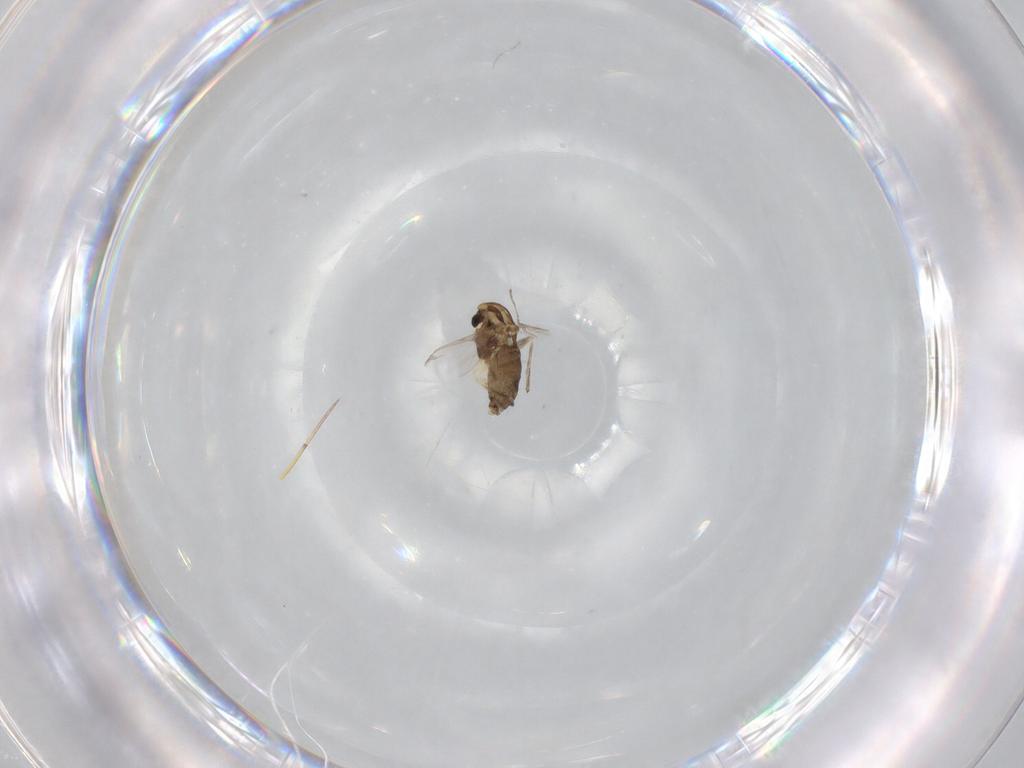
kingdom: Animalia
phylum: Arthropoda
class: Insecta
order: Diptera
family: Chironomidae
